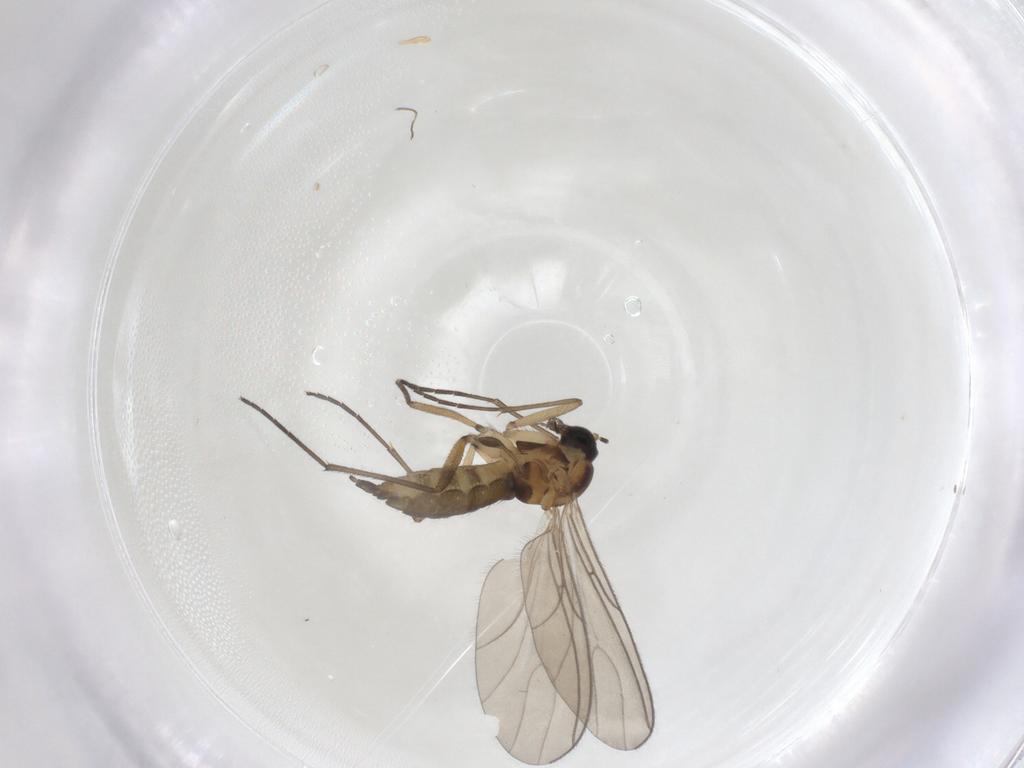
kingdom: Animalia
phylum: Arthropoda
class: Insecta
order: Diptera
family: Sciaridae
